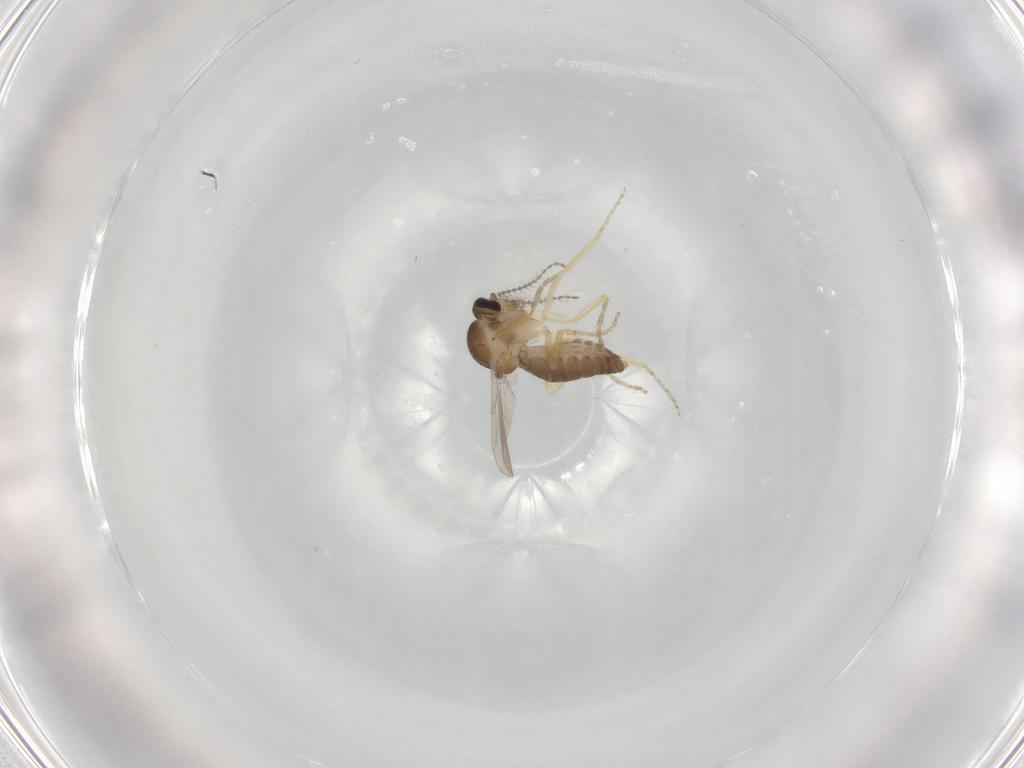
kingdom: Animalia
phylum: Arthropoda
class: Insecta
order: Diptera
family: Ceratopogonidae
